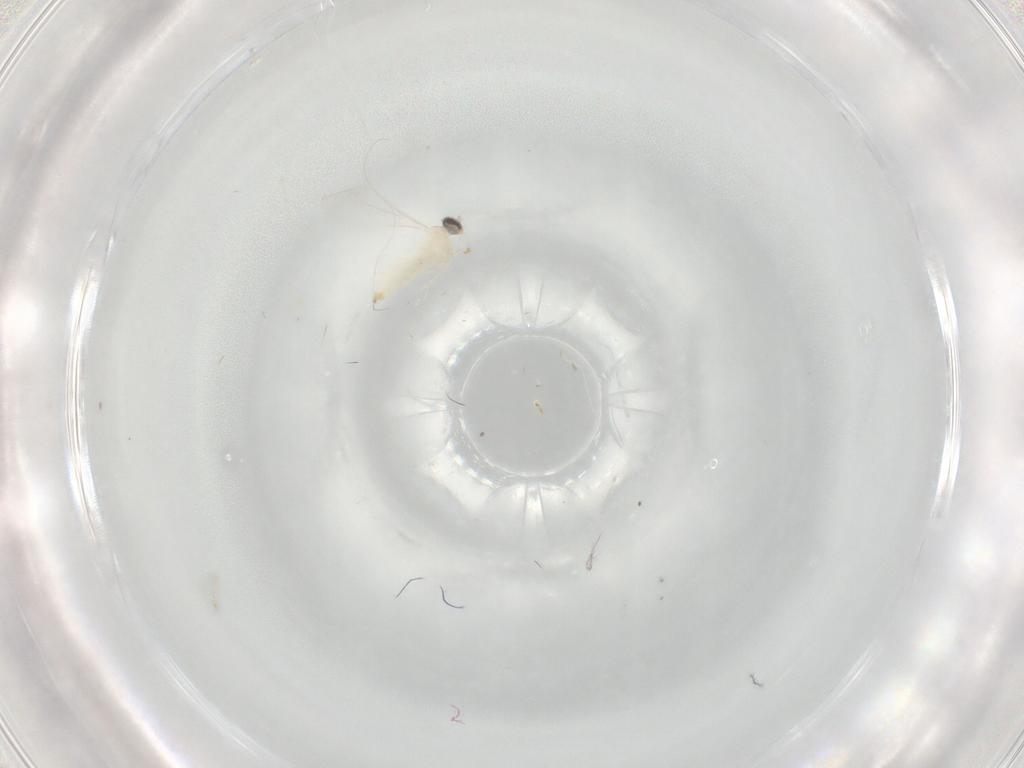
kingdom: Animalia
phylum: Arthropoda
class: Insecta
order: Diptera
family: Cecidomyiidae
